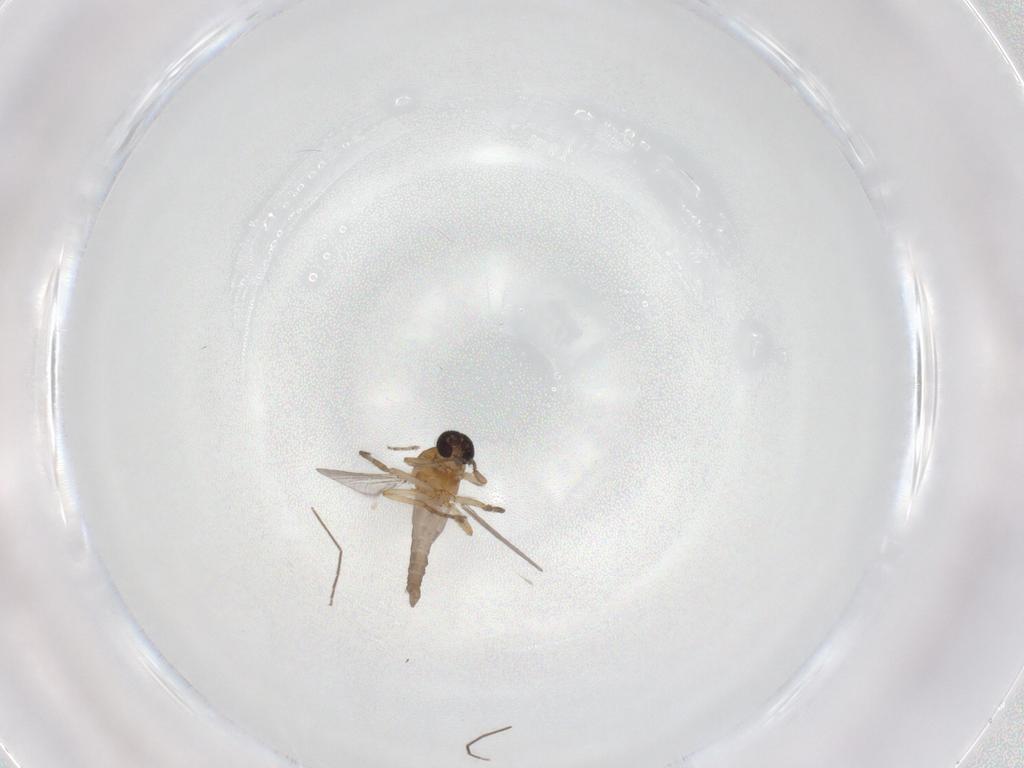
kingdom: Animalia
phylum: Arthropoda
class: Insecta
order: Diptera
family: Ceratopogonidae
